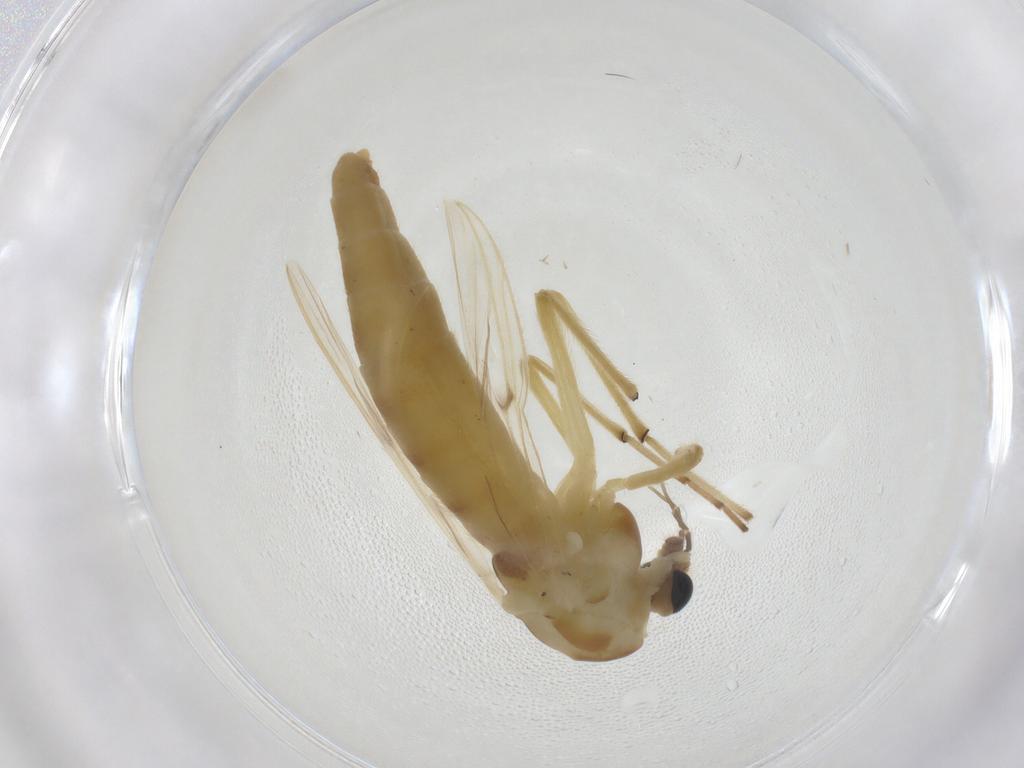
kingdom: Animalia
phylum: Arthropoda
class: Insecta
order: Diptera
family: Chironomidae
